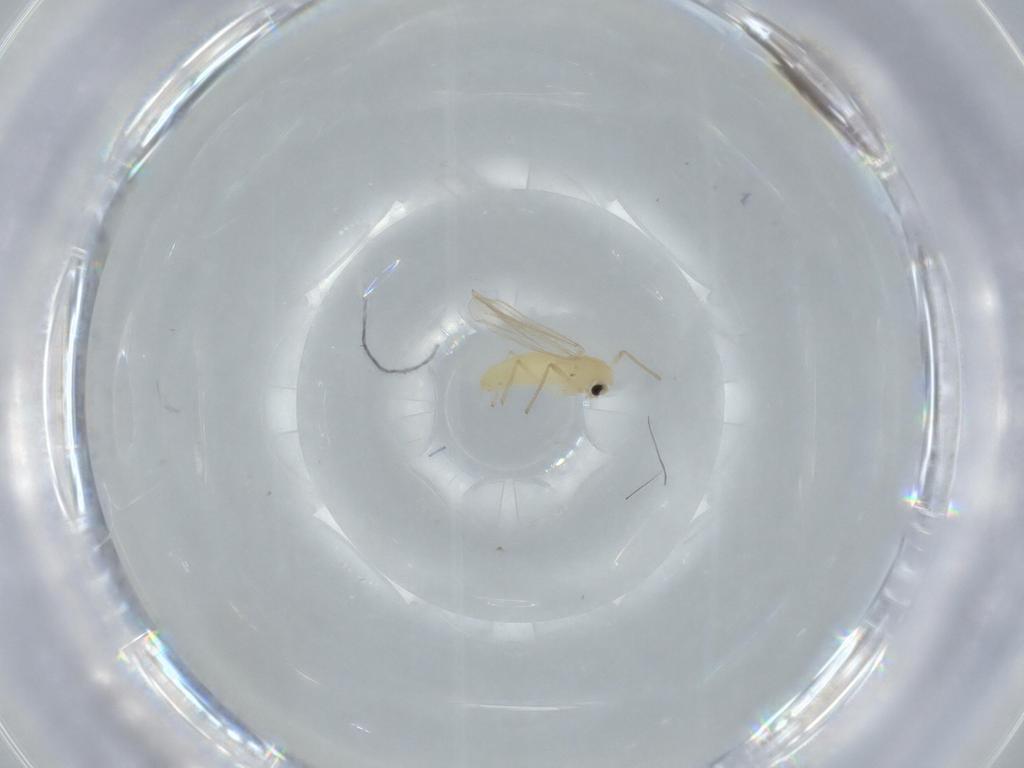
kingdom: Animalia
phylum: Arthropoda
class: Insecta
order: Diptera
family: Chironomidae
